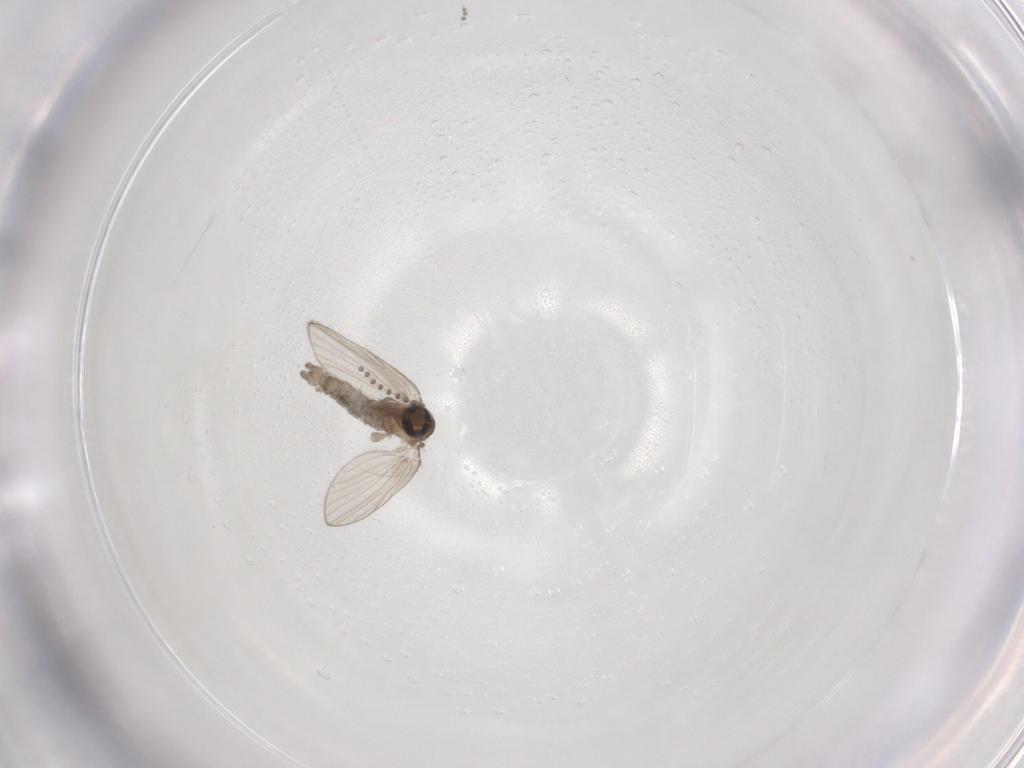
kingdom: Animalia
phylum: Arthropoda
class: Insecta
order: Diptera
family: Psychodidae
